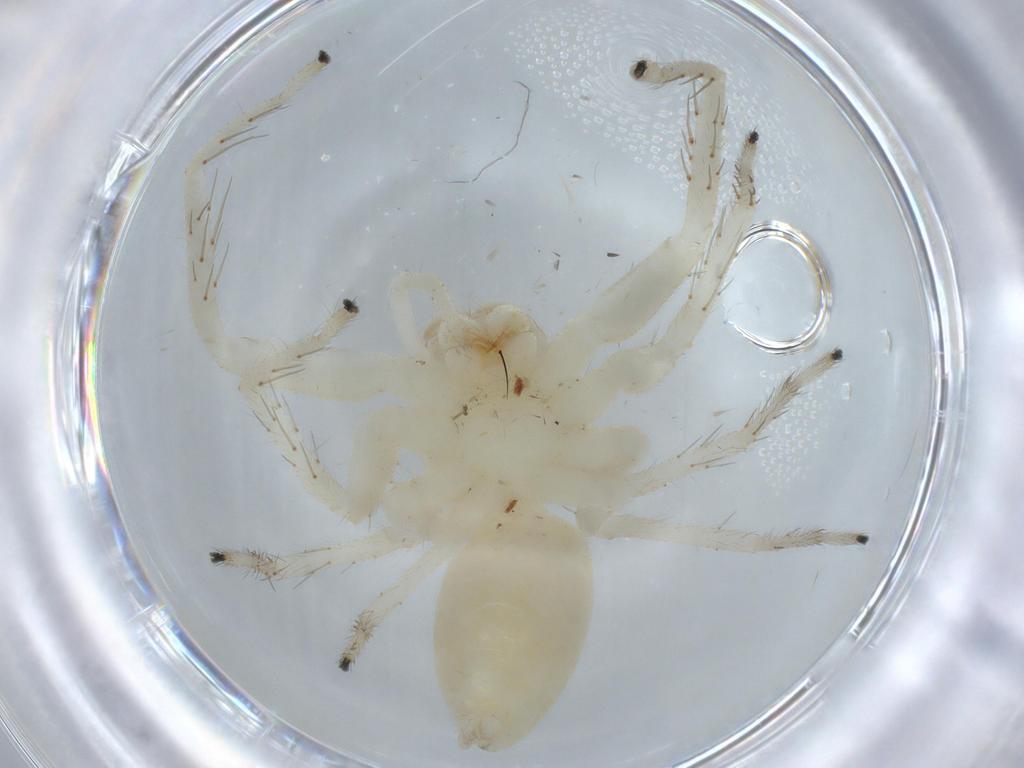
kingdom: Animalia
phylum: Arthropoda
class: Arachnida
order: Araneae
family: Salticidae
